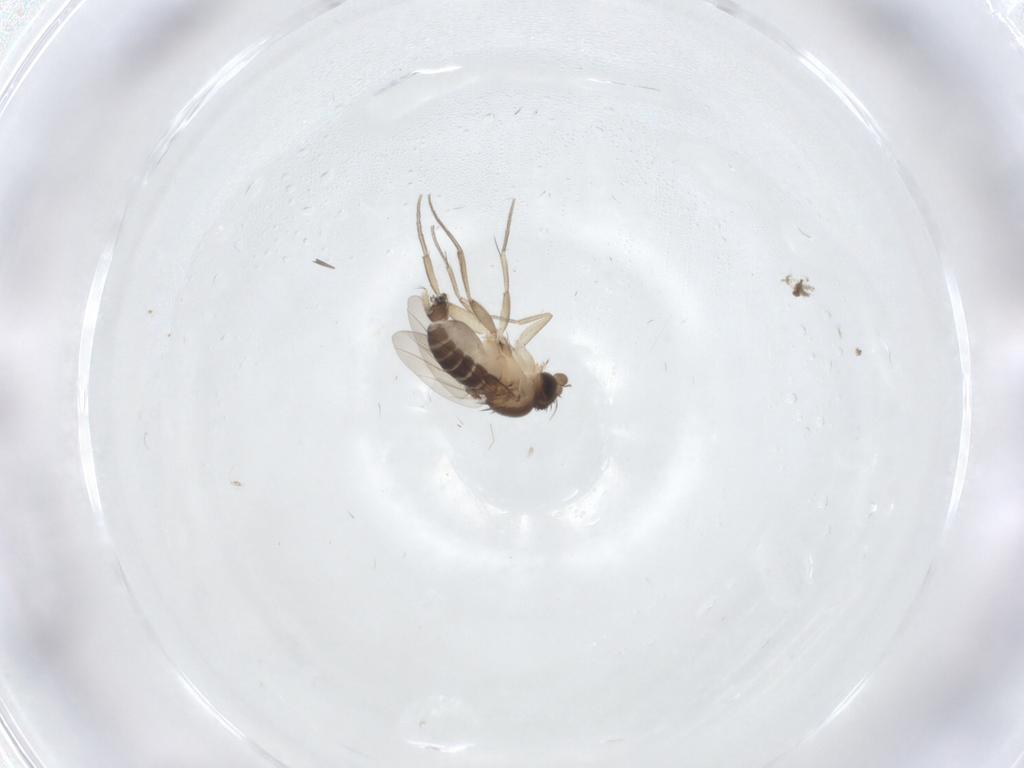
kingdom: Animalia
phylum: Arthropoda
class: Insecta
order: Diptera
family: Phoridae
